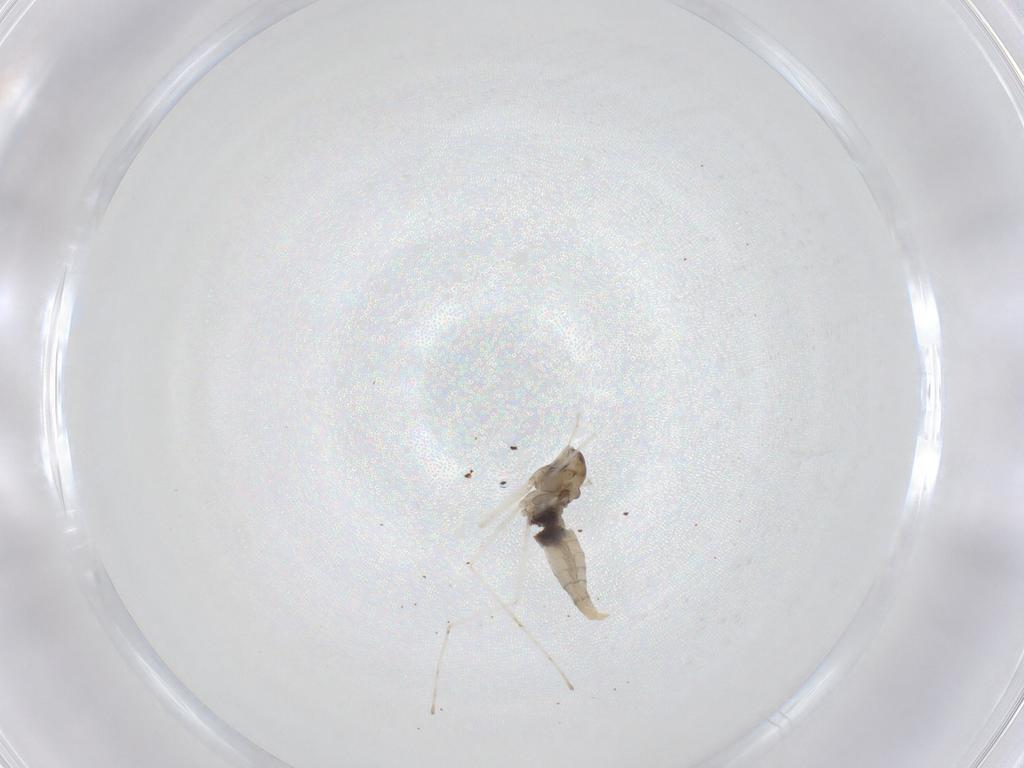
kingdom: Animalia
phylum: Arthropoda
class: Insecta
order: Diptera
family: Cecidomyiidae
